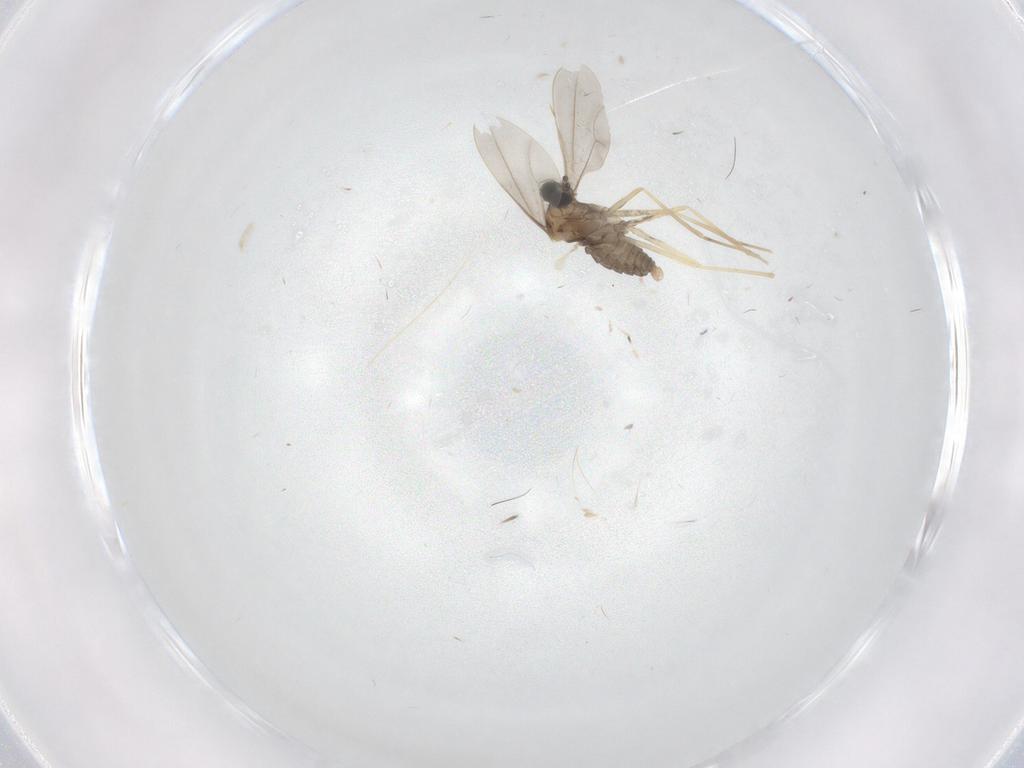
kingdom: Animalia
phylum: Arthropoda
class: Insecta
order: Diptera
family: Cecidomyiidae
